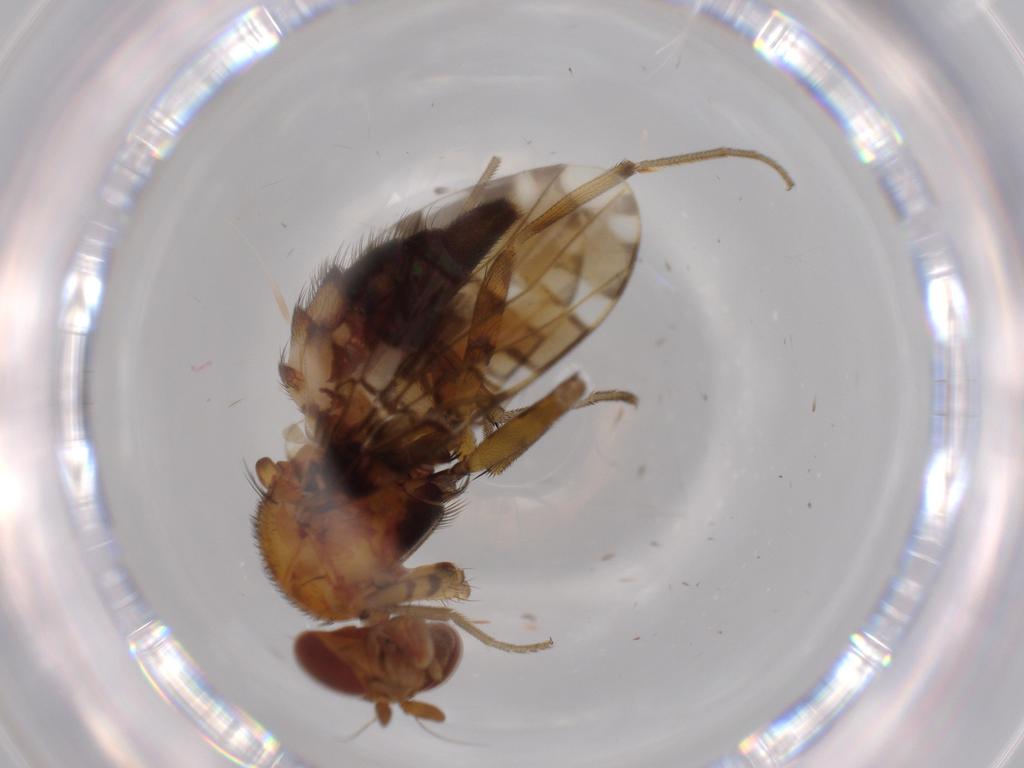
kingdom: Animalia
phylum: Arthropoda
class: Insecta
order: Diptera
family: Calliphoridae
